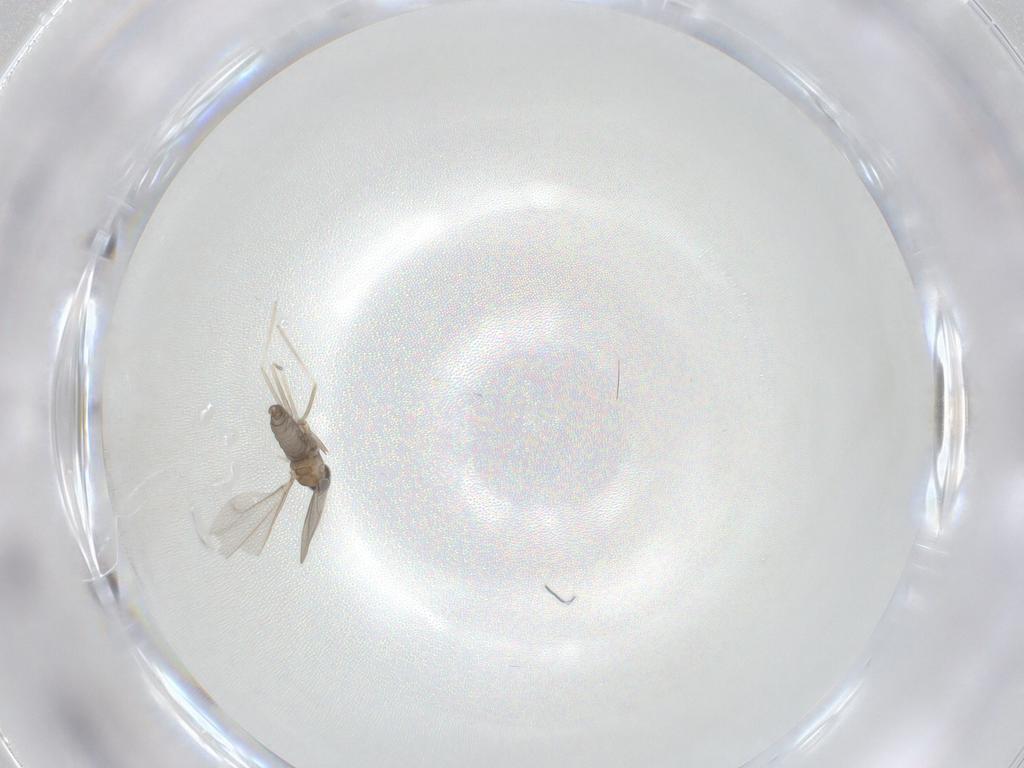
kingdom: Animalia
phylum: Arthropoda
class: Insecta
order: Diptera
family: Cecidomyiidae
